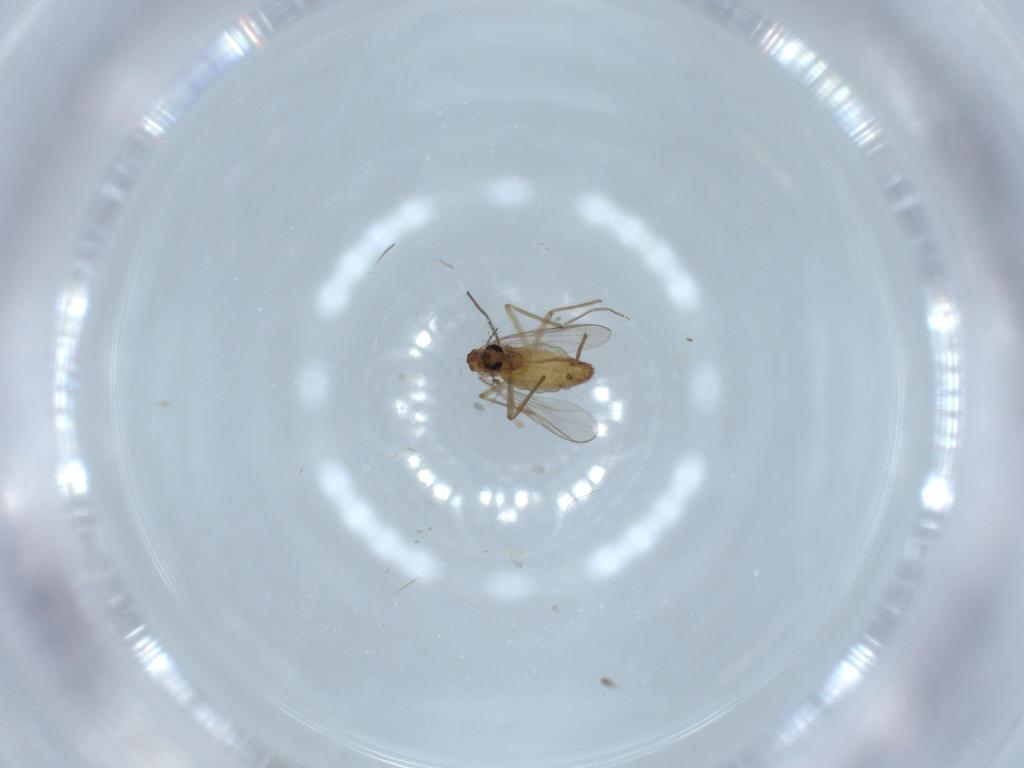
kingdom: Animalia
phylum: Arthropoda
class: Insecta
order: Diptera
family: Chironomidae
